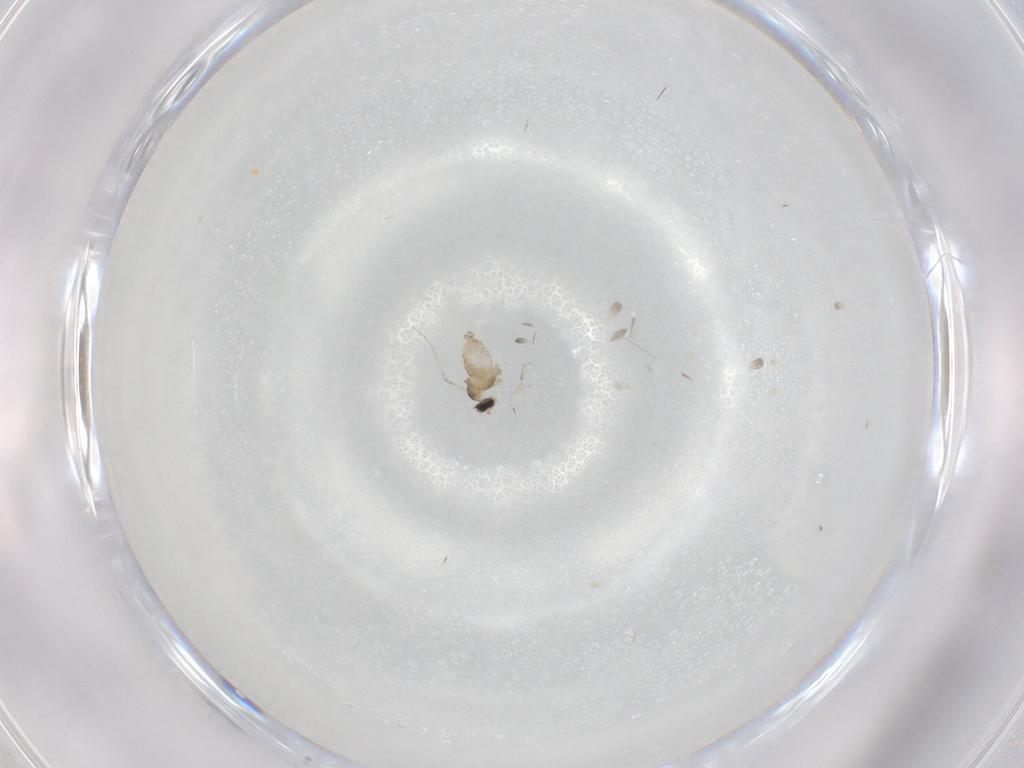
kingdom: Animalia
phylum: Arthropoda
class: Insecta
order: Diptera
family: Cecidomyiidae
